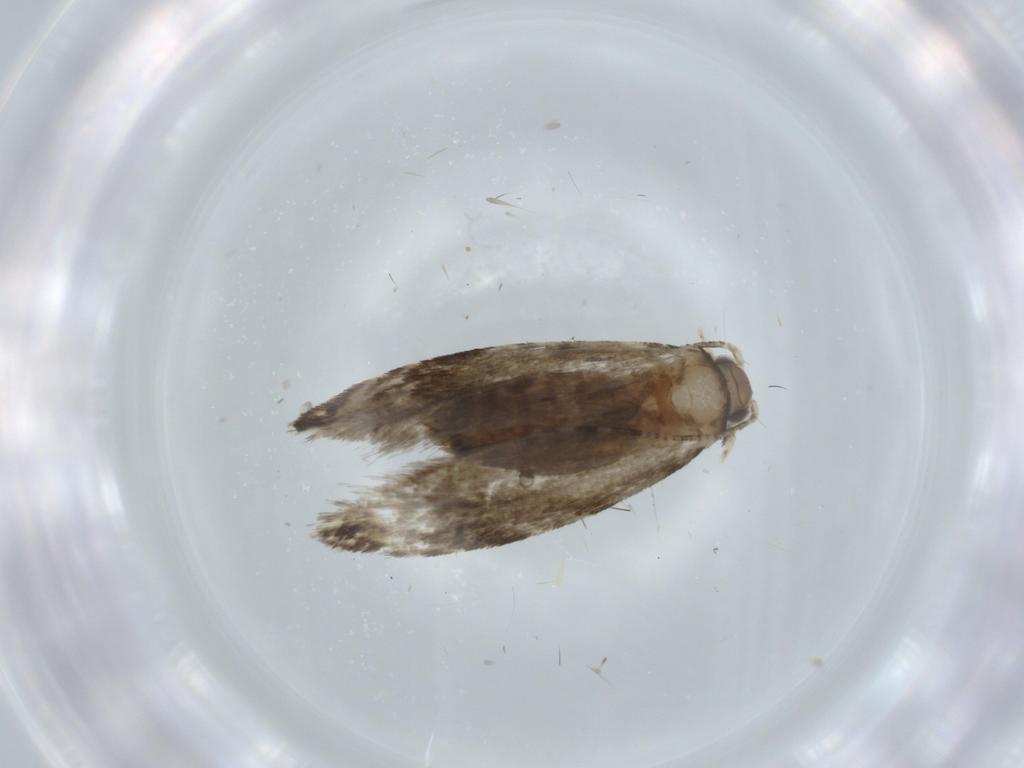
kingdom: Animalia
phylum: Arthropoda
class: Insecta
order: Lepidoptera
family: Tineidae
